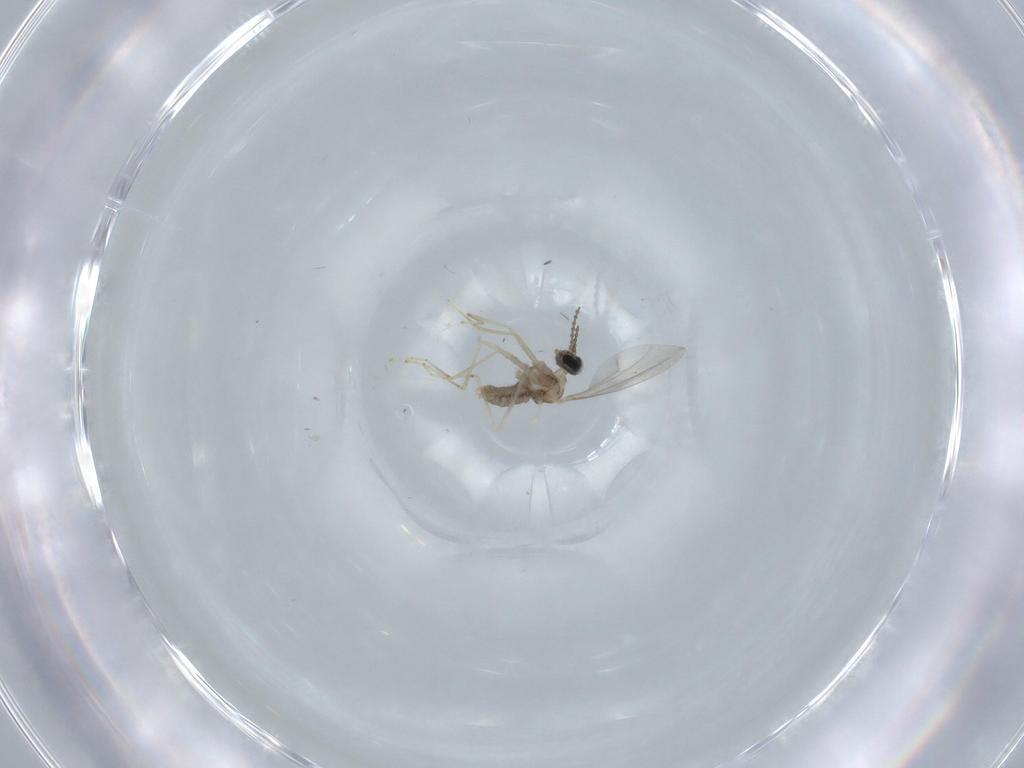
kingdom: Animalia
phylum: Arthropoda
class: Insecta
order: Diptera
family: Cecidomyiidae
